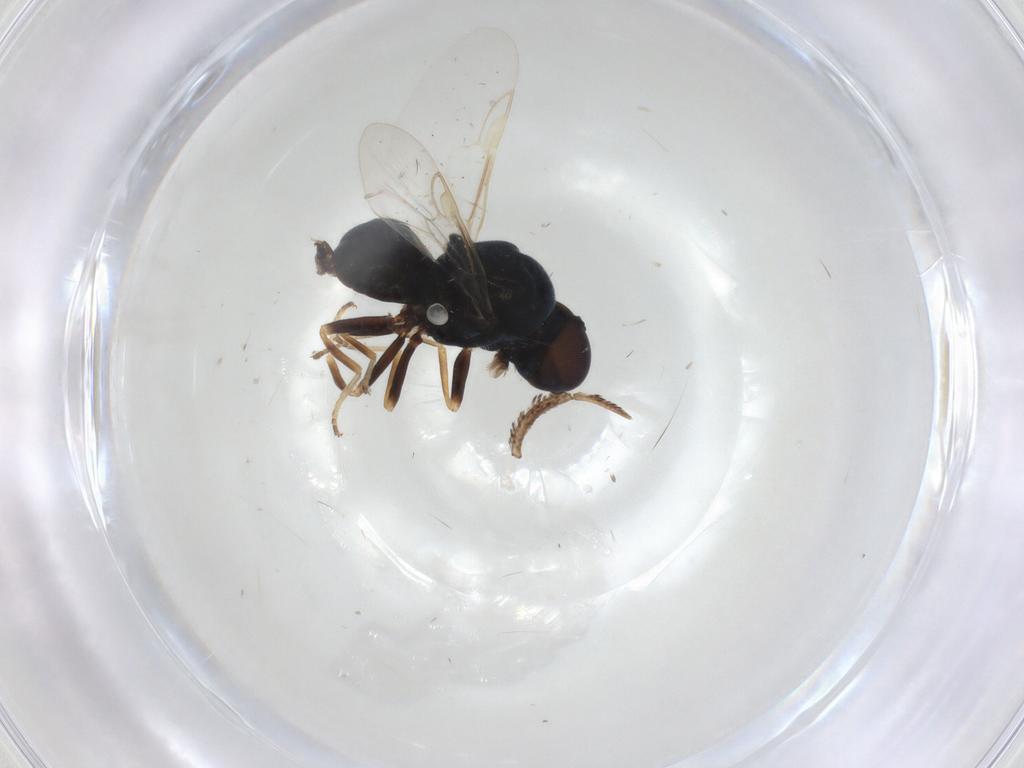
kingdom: Animalia
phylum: Arthropoda
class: Insecta
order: Diptera
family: Stratiomyidae
